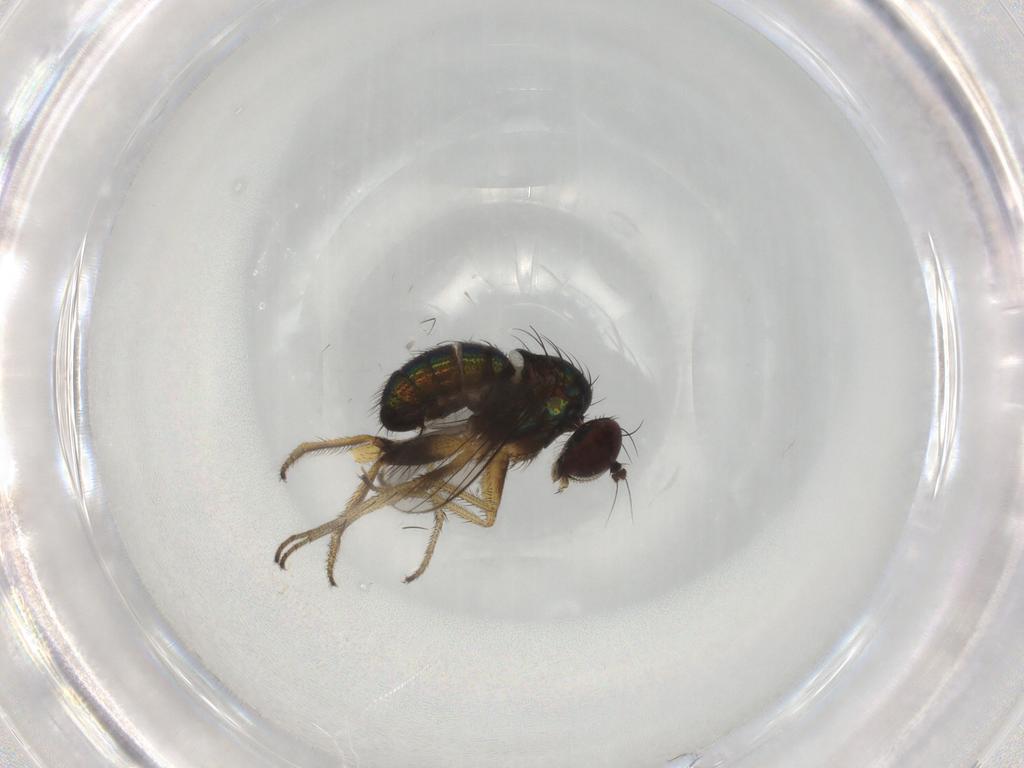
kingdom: Animalia
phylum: Arthropoda
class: Insecta
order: Diptera
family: Dolichopodidae
